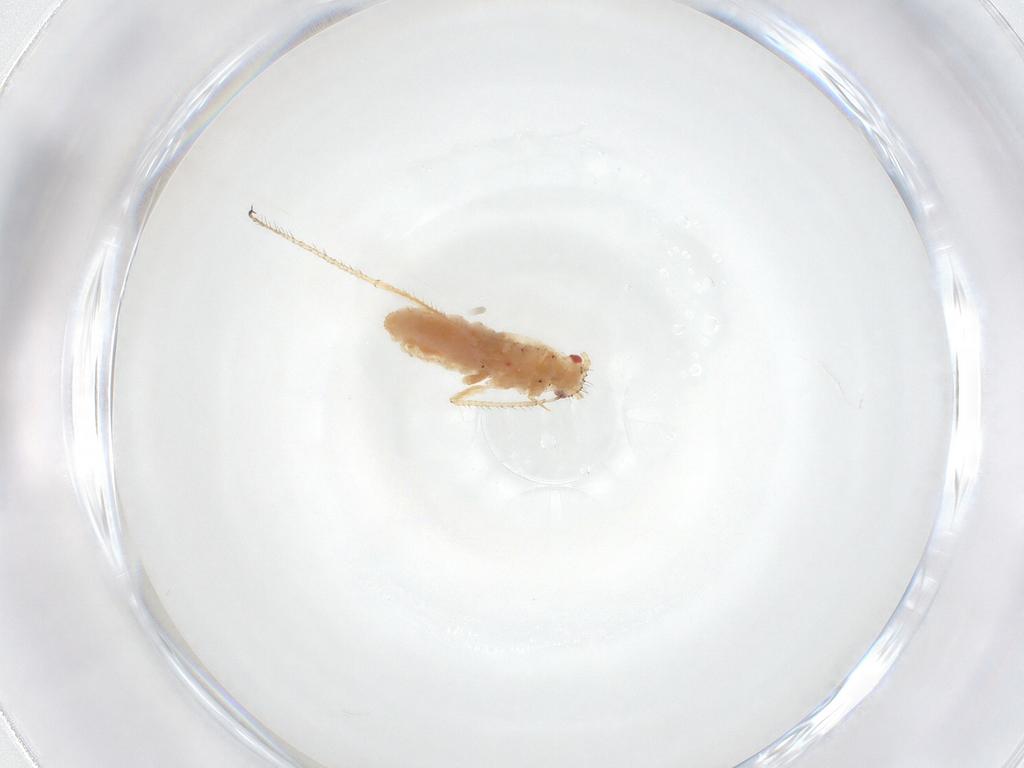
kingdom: Animalia
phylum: Arthropoda
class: Insecta
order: Hemiptera
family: Aphididae
